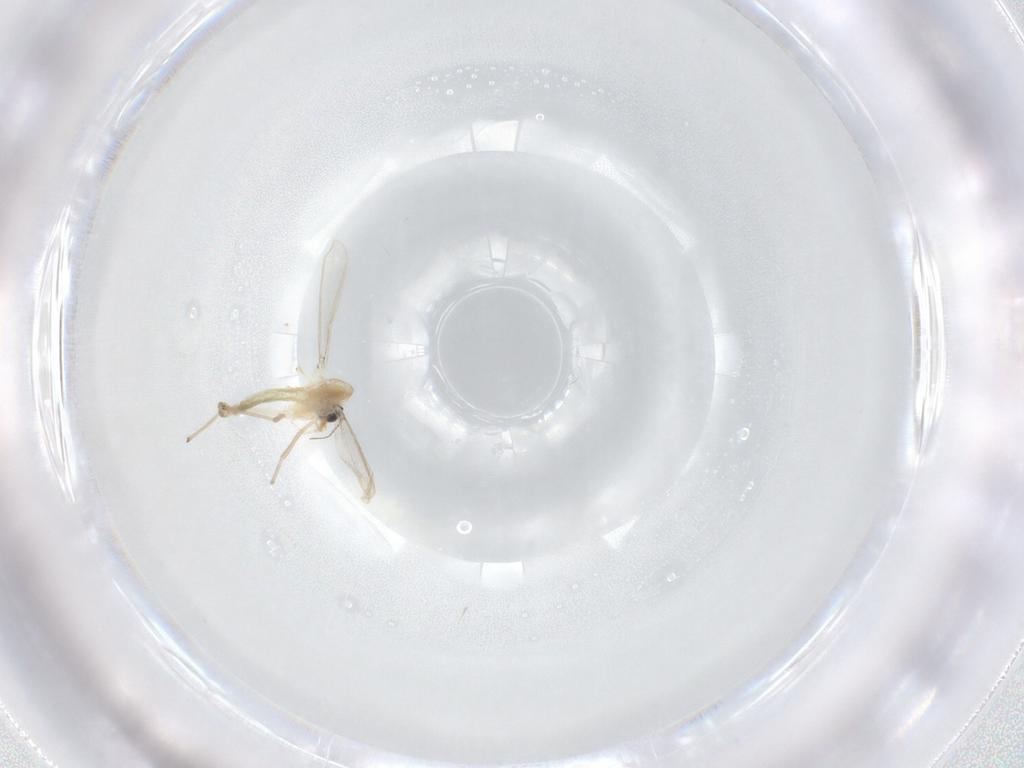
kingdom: Animalia
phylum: Arthropoda
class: Insecta
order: Diptera
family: Chironomidae
